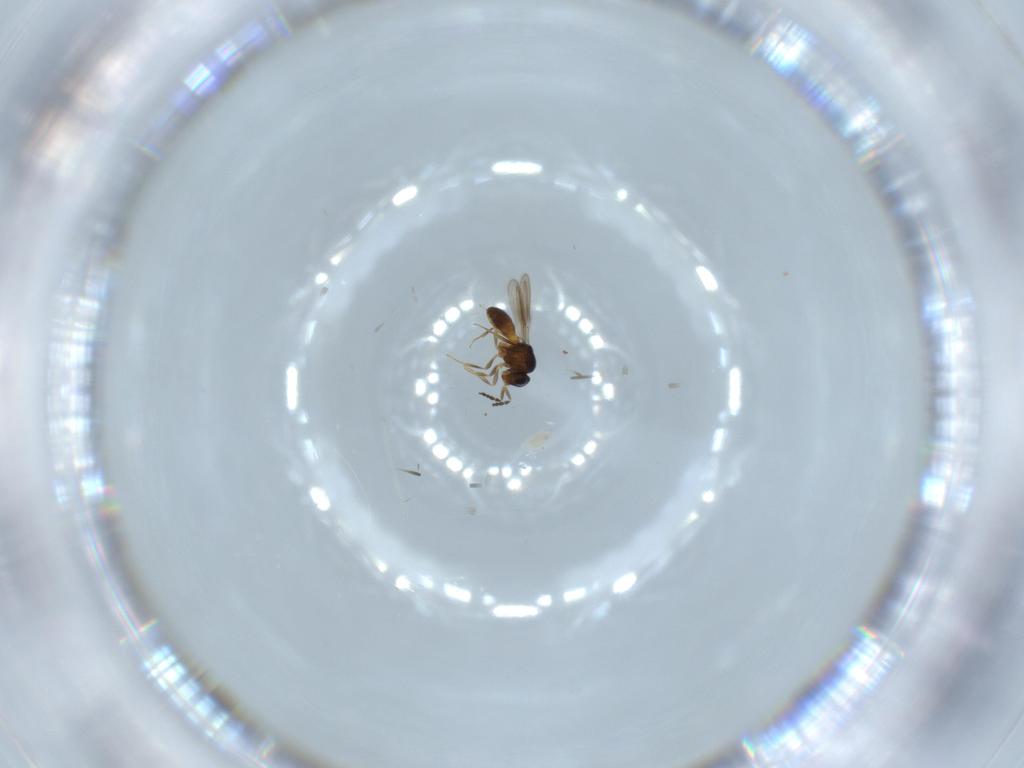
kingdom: Animalia
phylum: Arthropoda
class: Insecta
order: Hymenoptera
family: Scelionidae
